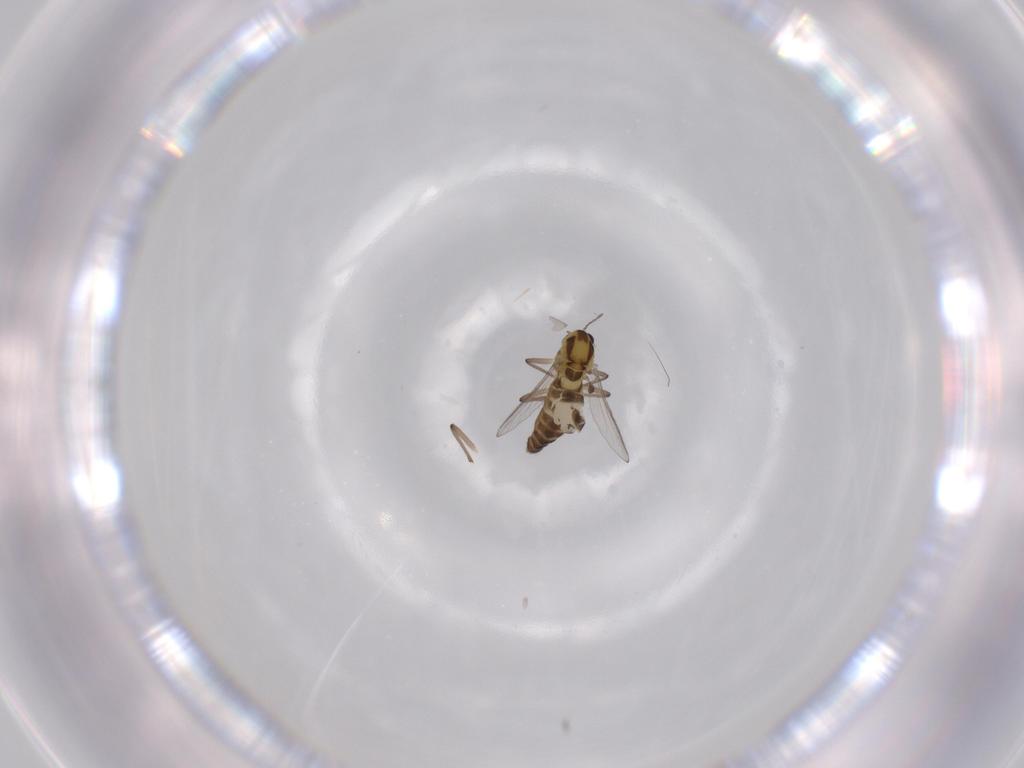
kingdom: Animalia
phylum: Arthropoda
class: Insecta
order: Diptera
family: Chironomidae
